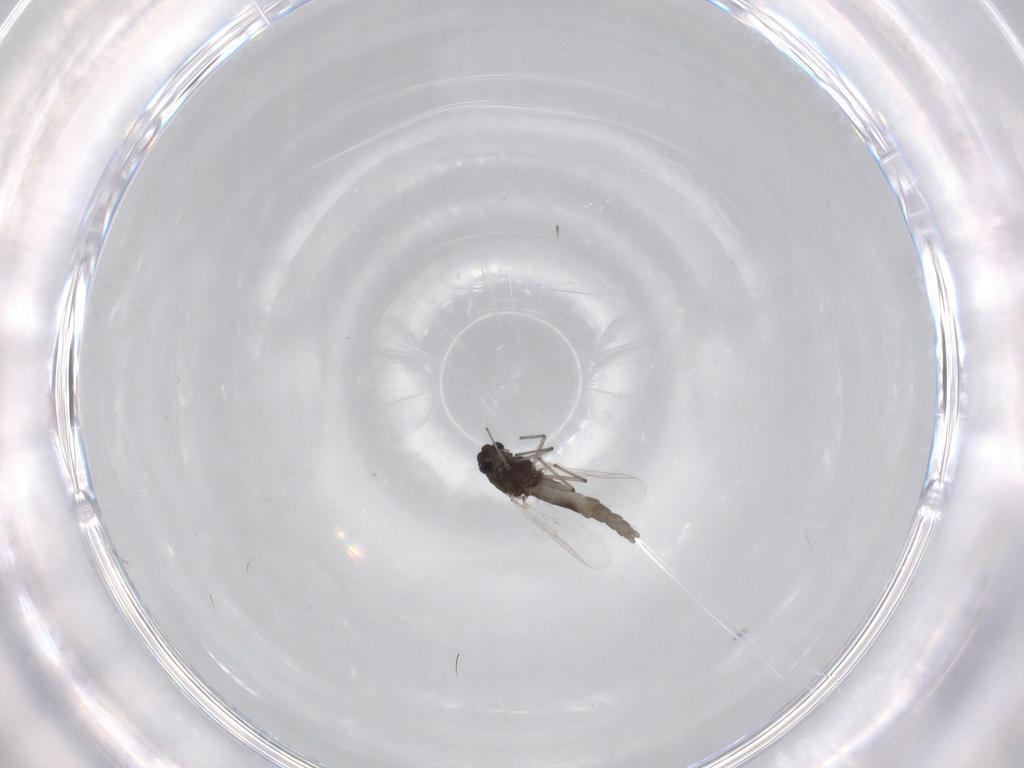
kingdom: Animalia
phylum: Arthropoda
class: Insecta
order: Diptera
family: Chironomidae
